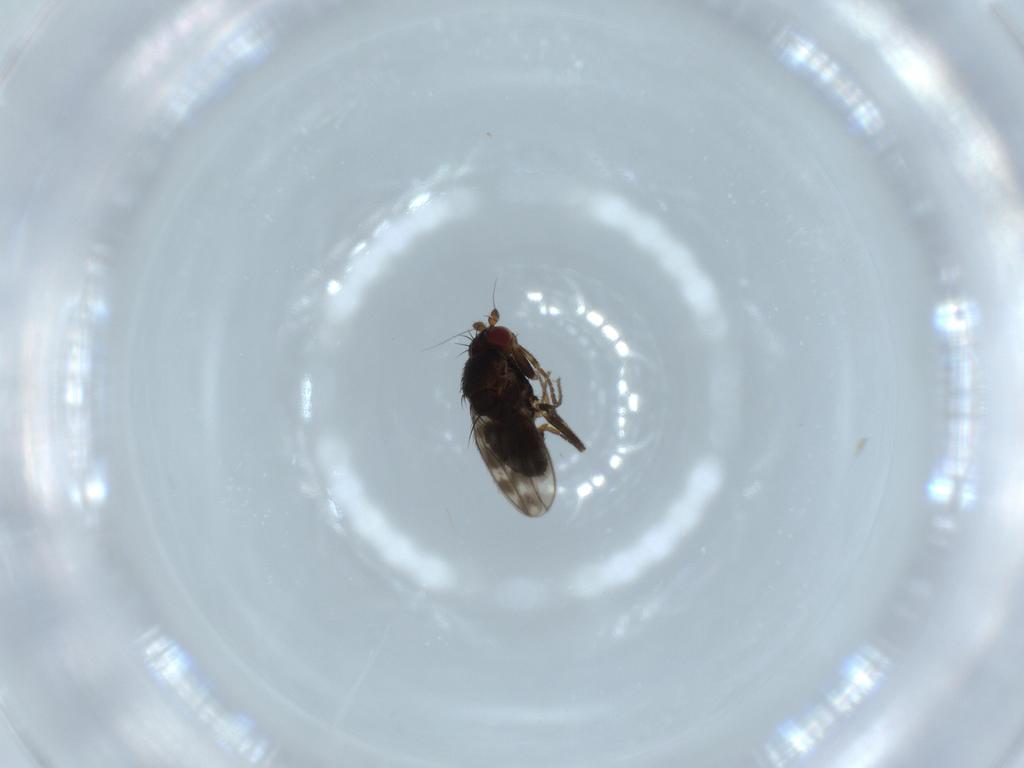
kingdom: Animalia
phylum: Arthropoda
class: Insecta
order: Diptera
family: Sphaeroceridae
